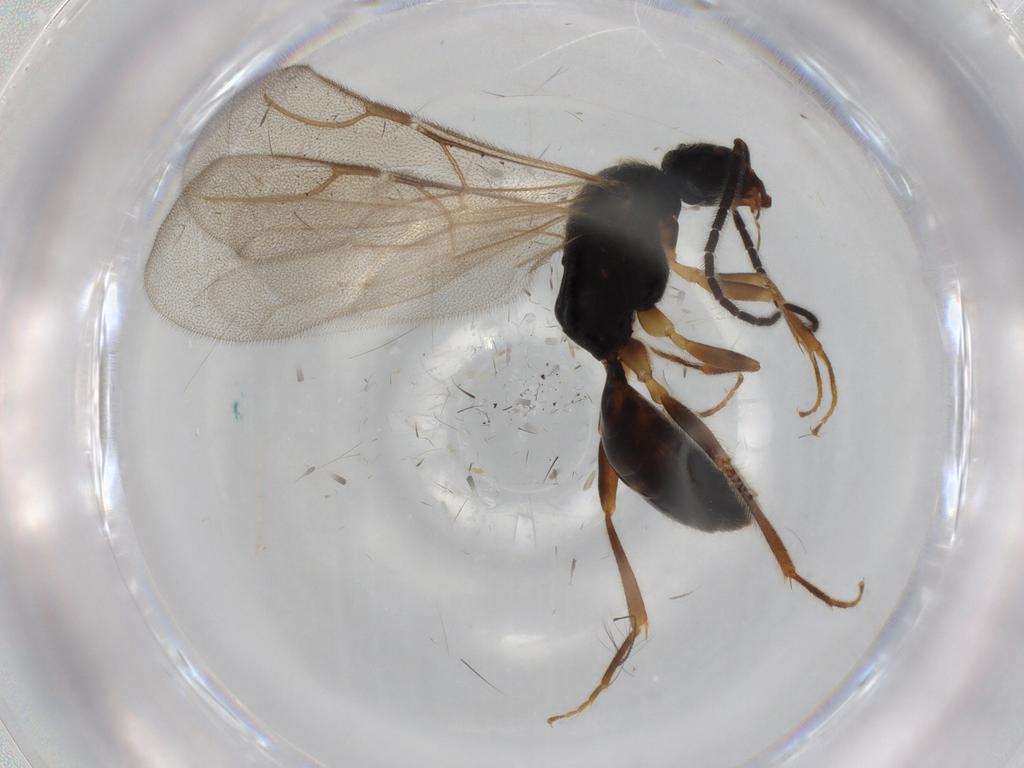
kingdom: Animalia
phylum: Arthropoda
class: Insecta
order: Hymenoptera
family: Bethylidae
